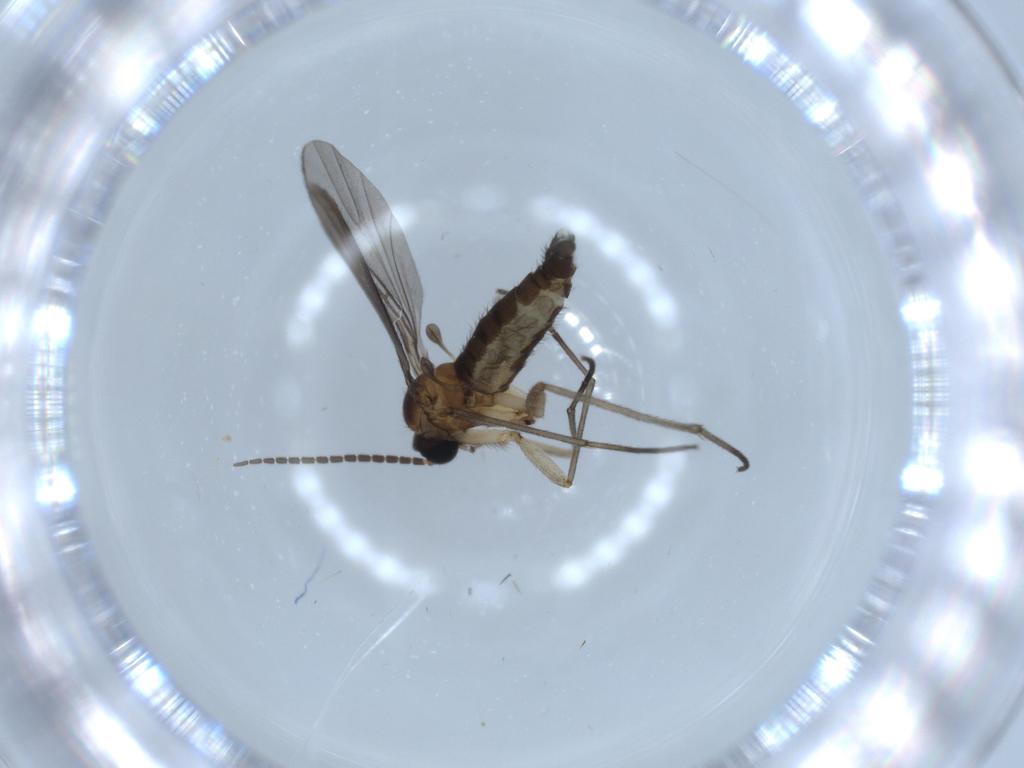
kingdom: Animalia
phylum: Arthropoda
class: Insecta
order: Diptera
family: Sciaridae
